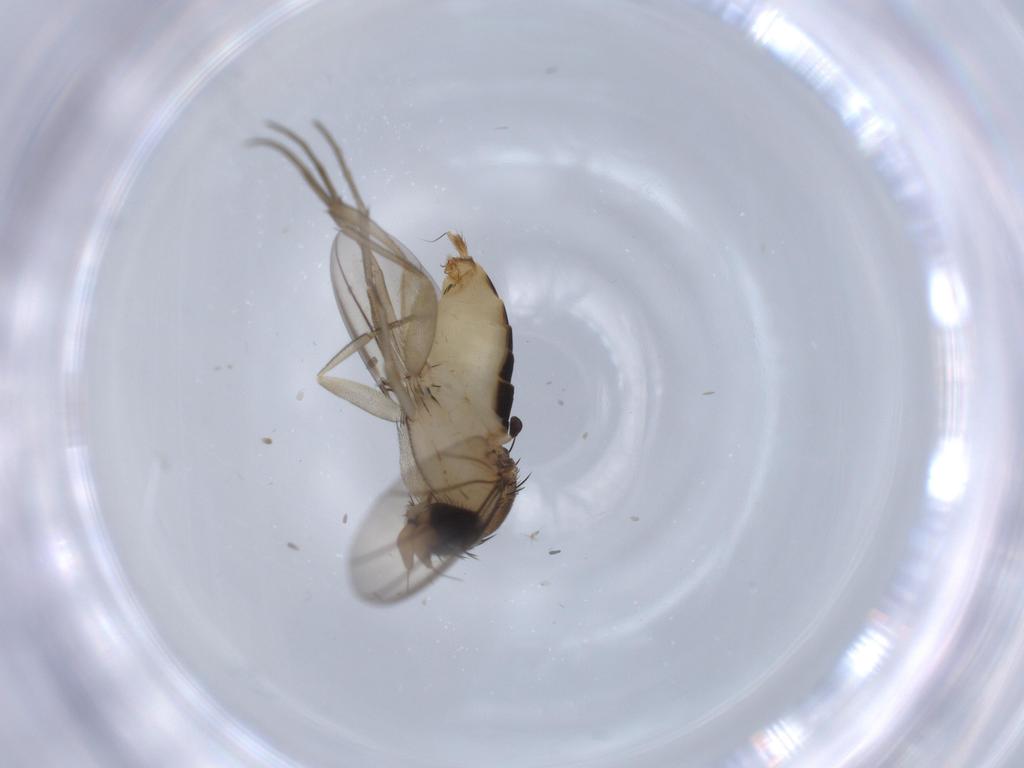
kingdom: Animalia
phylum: Arthropoda
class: Insecta
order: Diptera
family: Phoridae
